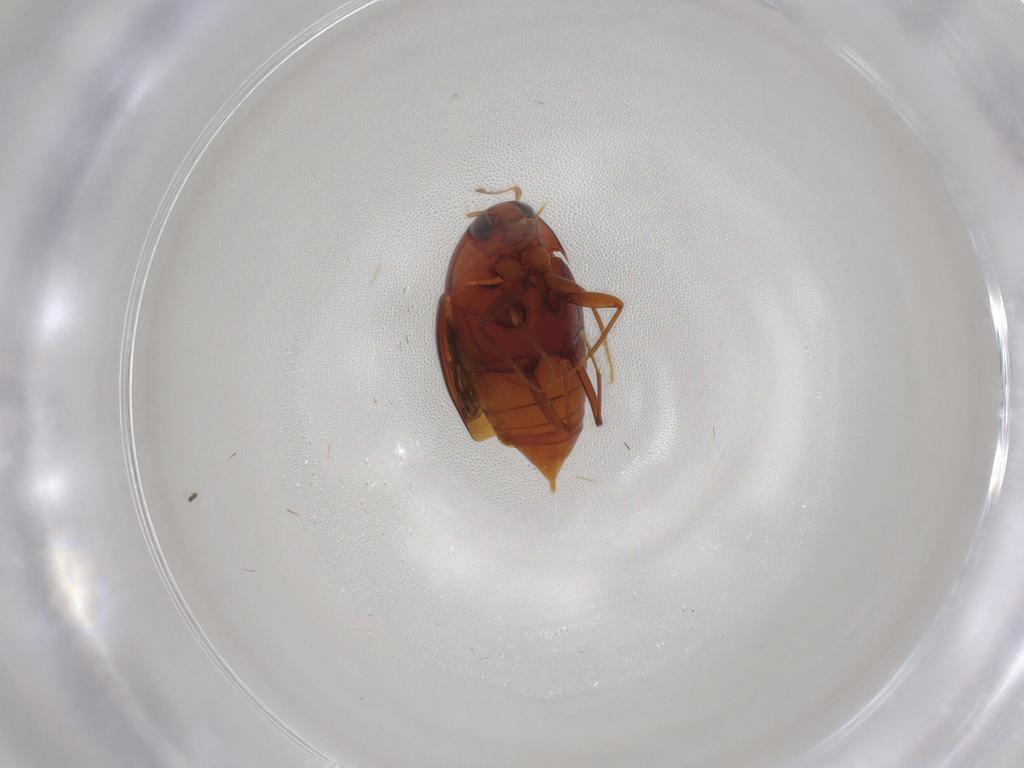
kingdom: Animalia
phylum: Arthropoda
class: Insecta
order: Coleoptera
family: Staphylinidae
